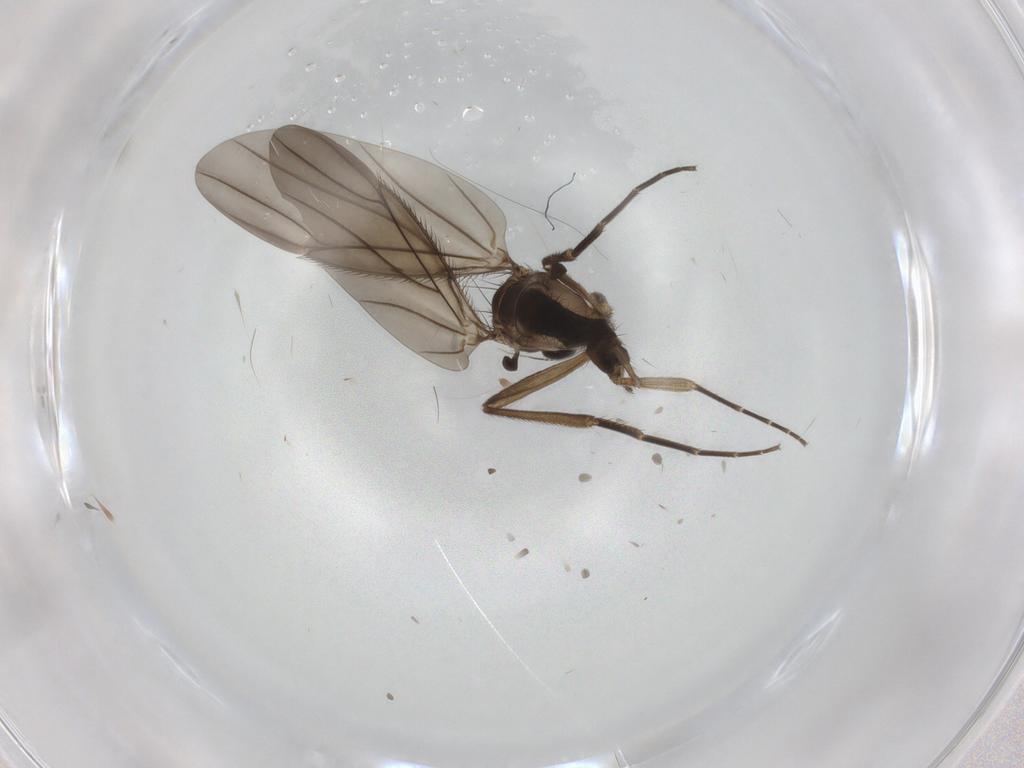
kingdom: Animalia
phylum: Arthropoda
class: Insecta
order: Diptera
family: Phoridae
